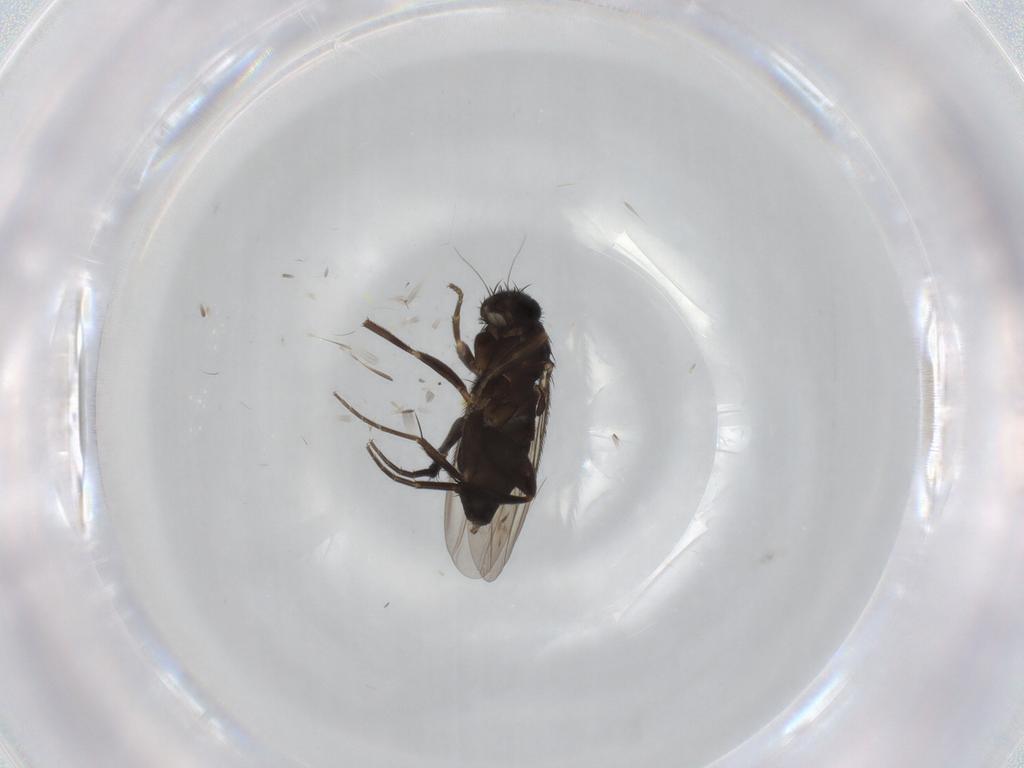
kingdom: Animalia
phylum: Arthropoda
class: Insecta
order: Diptera
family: Phoridae
